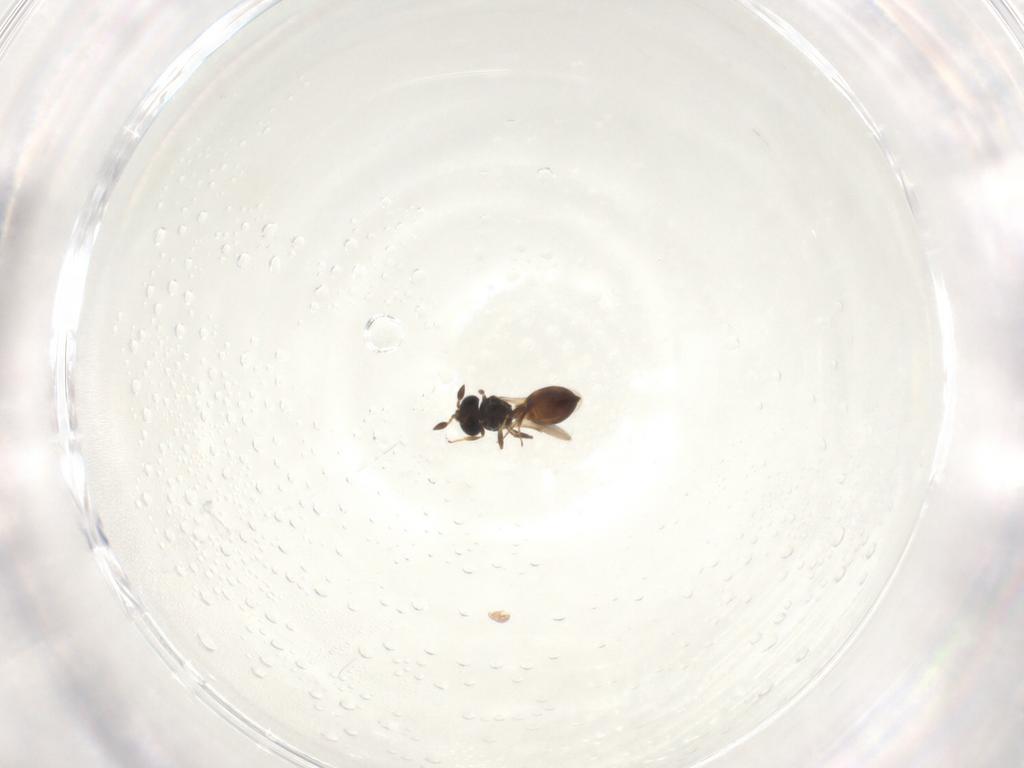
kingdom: Animalia
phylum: Arthropoda
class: Insecta
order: Hymenoptera
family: Scelionidae
